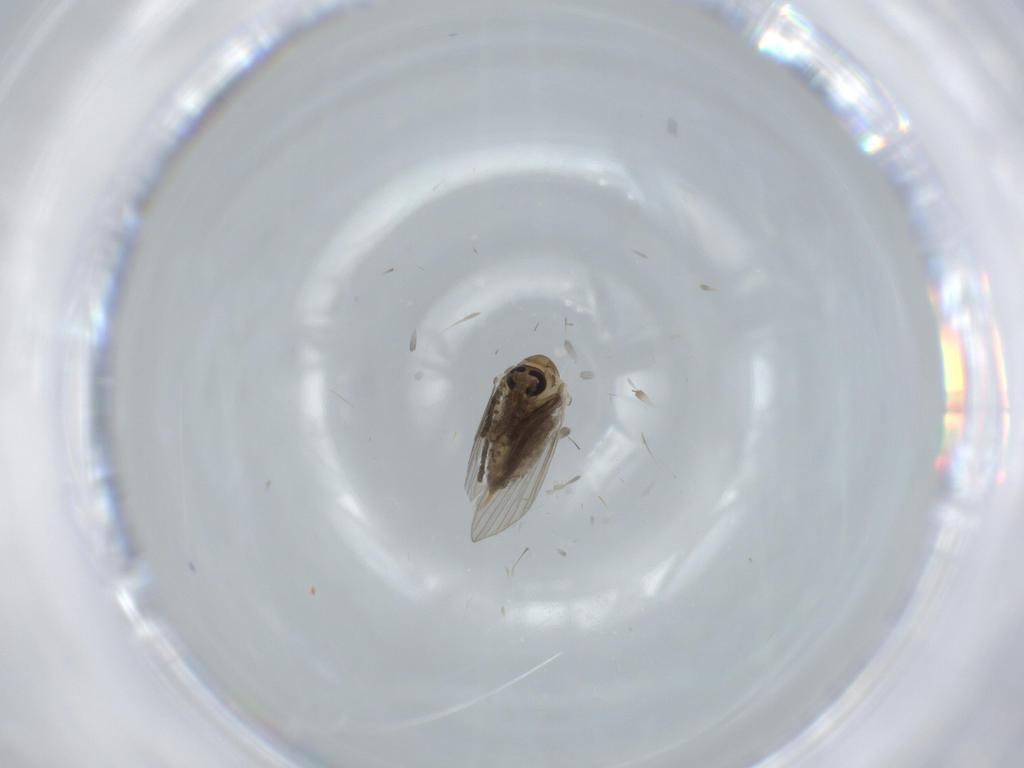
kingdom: Animalia
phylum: Arthropoda
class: Insecta
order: Diptera
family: Psychodidae
